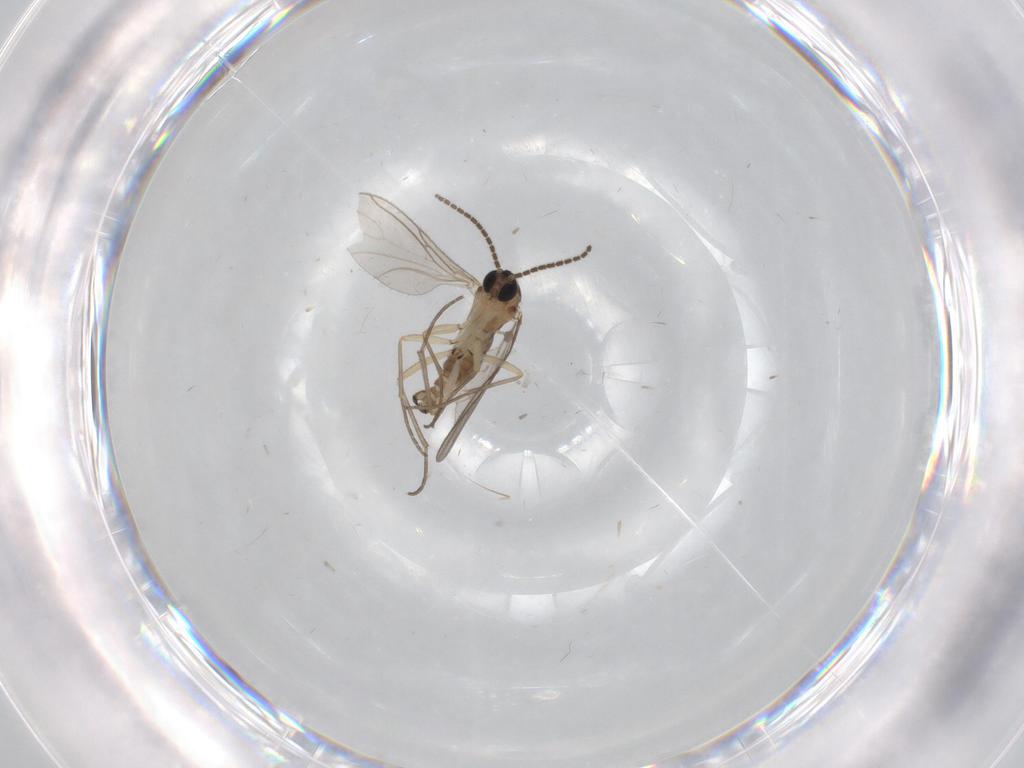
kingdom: Animalia
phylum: Arthropoda
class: Insecta
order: Diptera
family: Sciaridae
